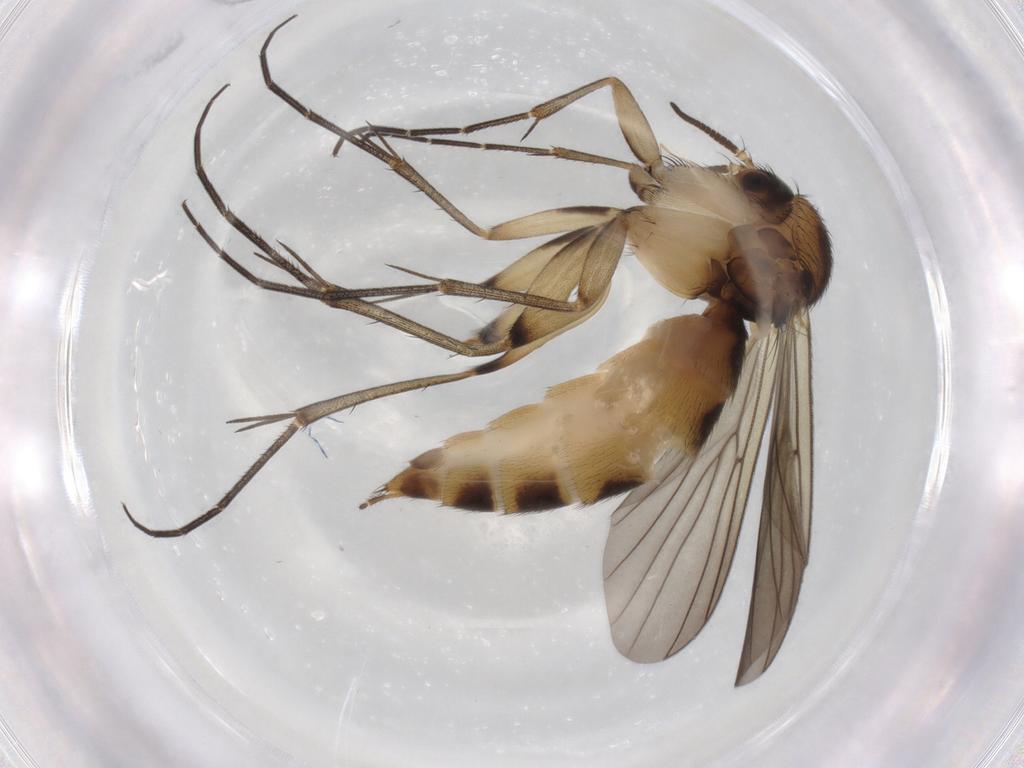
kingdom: Animalia
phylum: Arthropoda
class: Insecta
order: Diptera
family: Mycetophilidae
